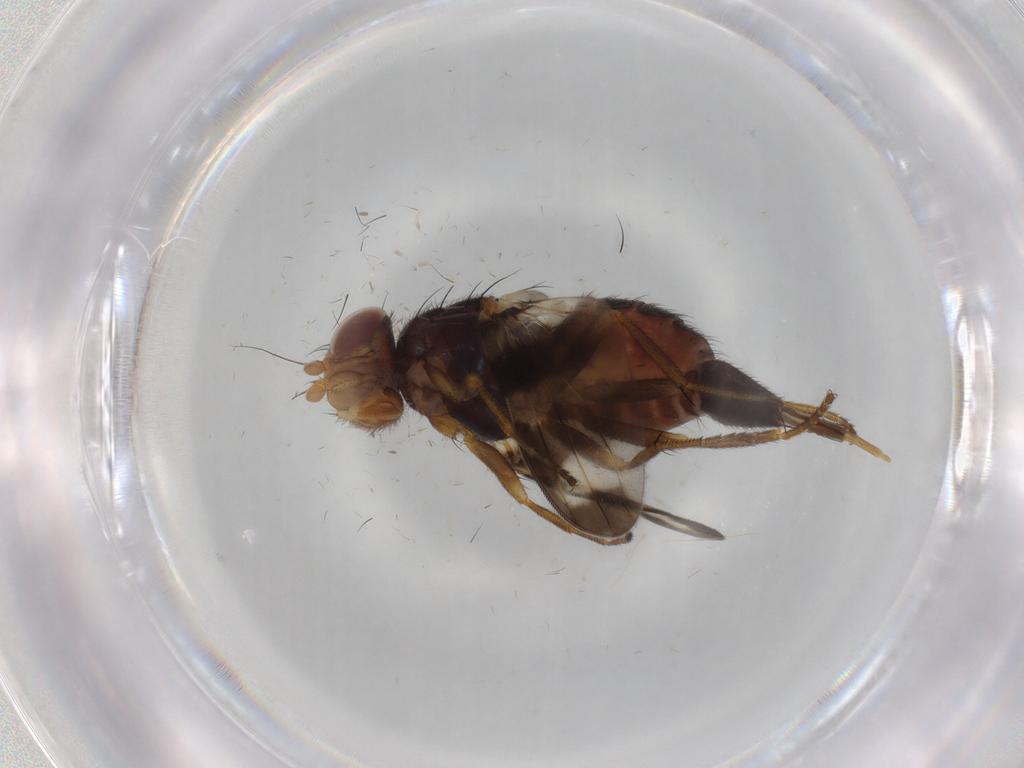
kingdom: Animalia
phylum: Arthropoda
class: Insecta
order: Diptera
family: Ulidiidae
